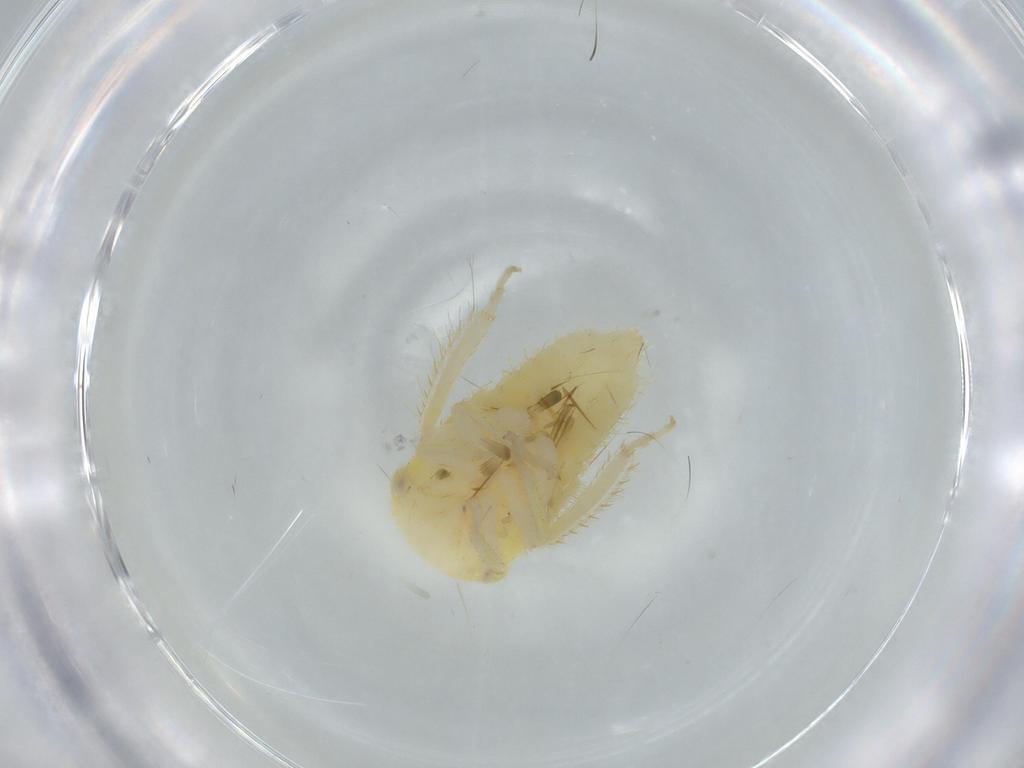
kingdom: Animalia
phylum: Arthropoda
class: Insecta
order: Hemiptera
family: Cicadellidae
